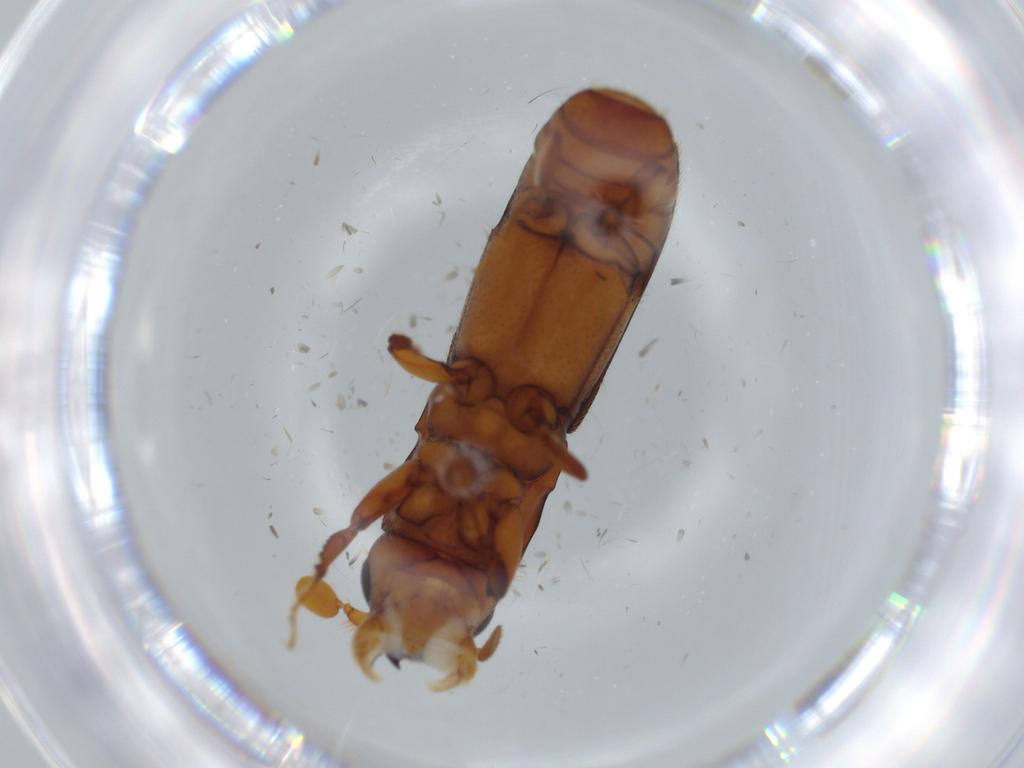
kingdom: Animalia
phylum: Arthropoda
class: Insecta
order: Coleoptera
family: Curculionidae
